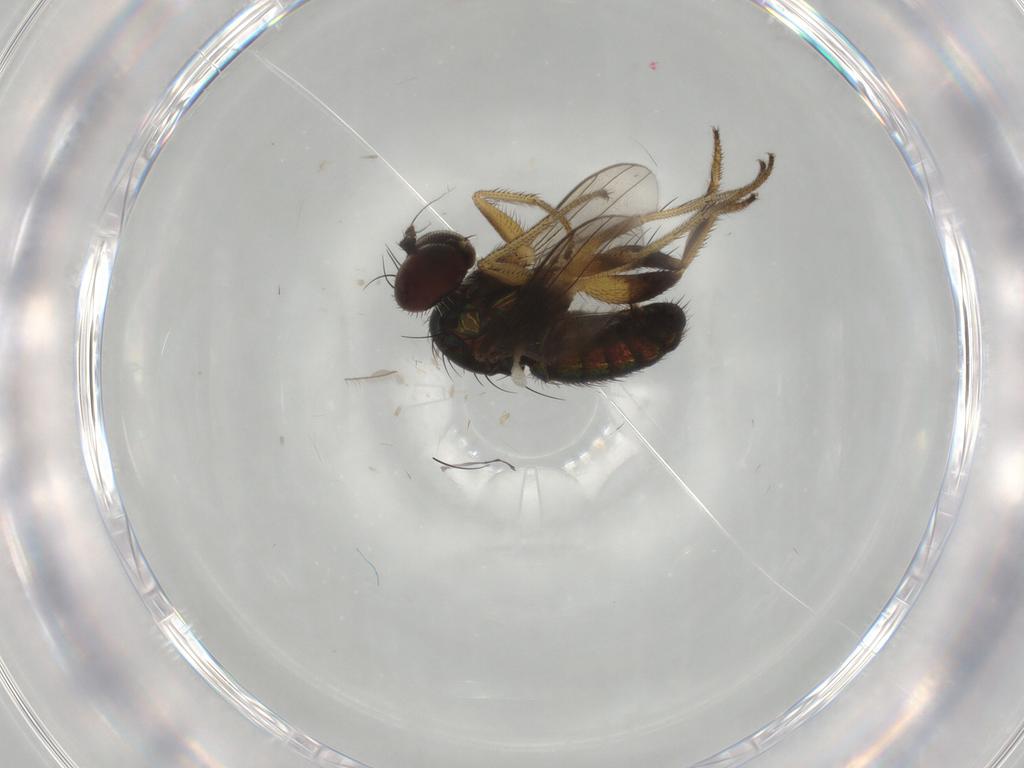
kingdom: Animalia
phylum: Arthropoda
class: Insecta
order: Diptera
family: Dolichopodidae
